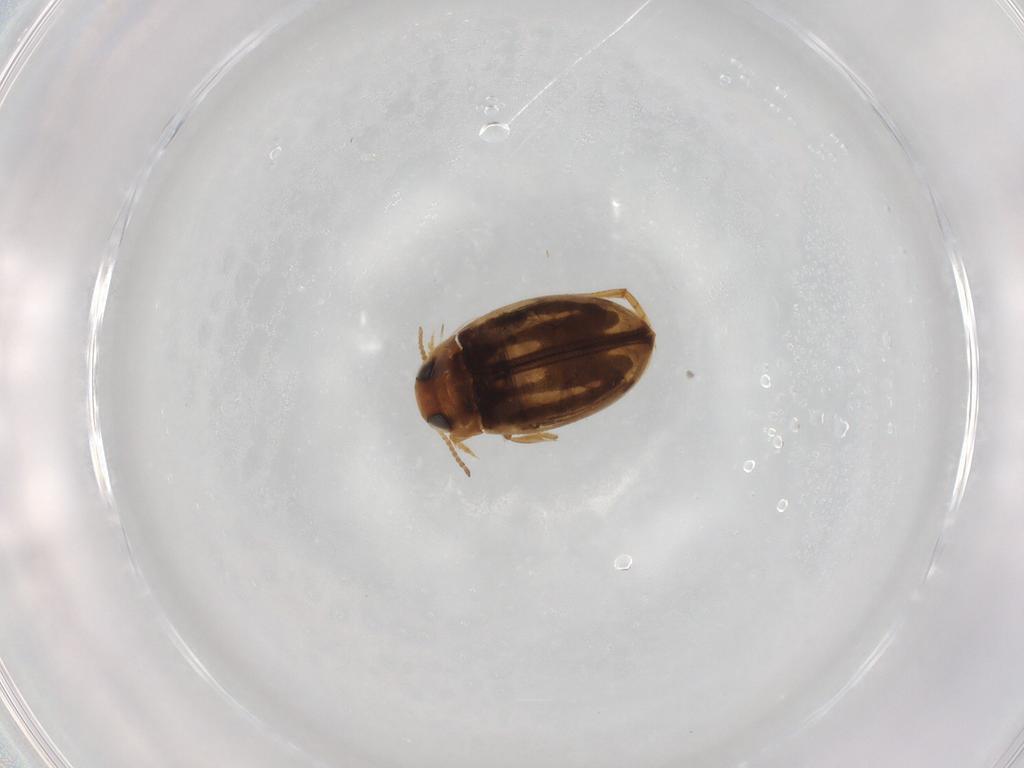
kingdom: Animalia
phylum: Arthropoda
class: Insecta
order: Coleoptera
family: Dytiscidae
